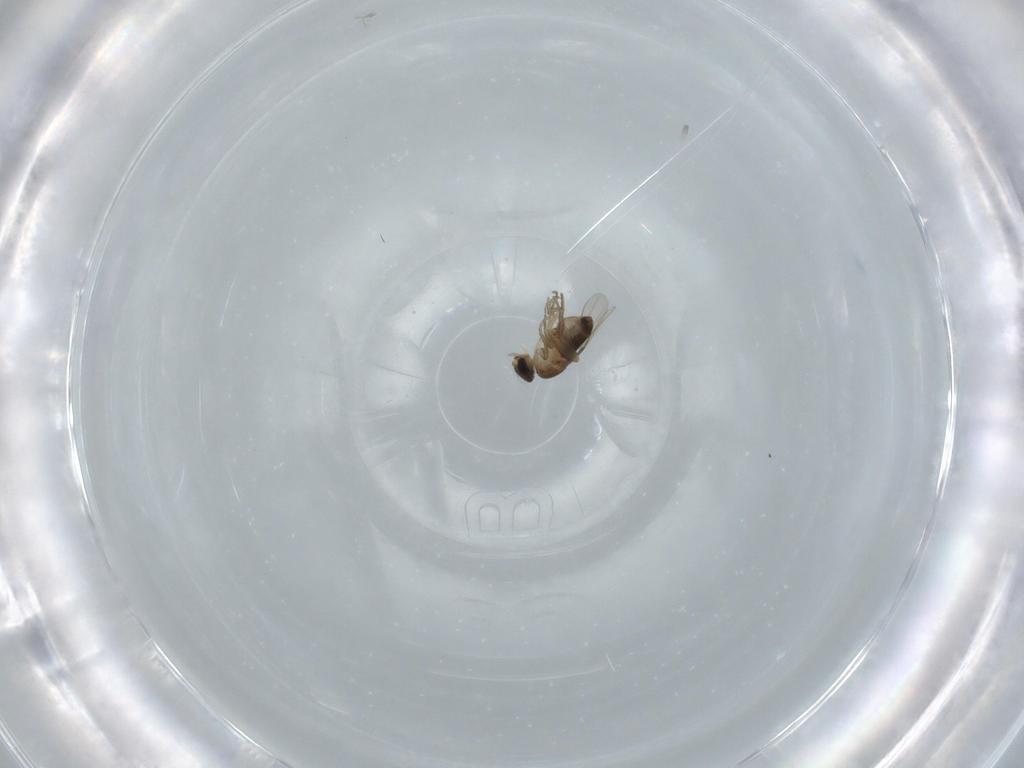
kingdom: Animalia
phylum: Arthropoda
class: Insecta
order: Diptera
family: Phoridae
